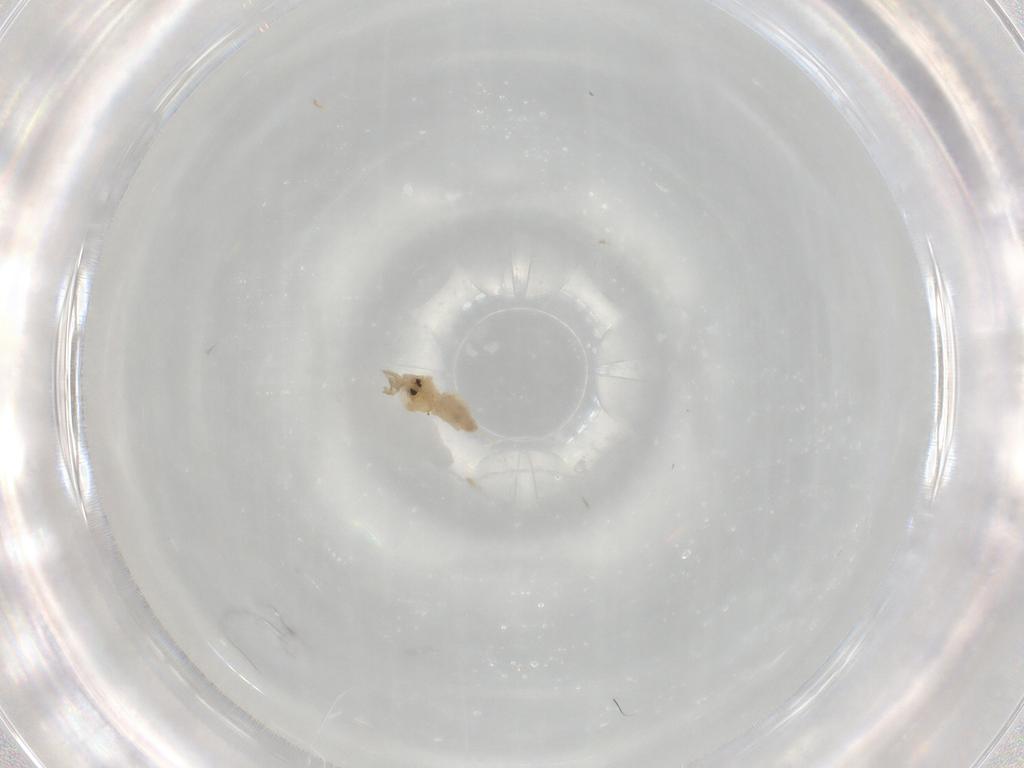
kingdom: Animalia
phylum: Arthropoda
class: Insecta
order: Hemiptera
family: Aleyrodidae
